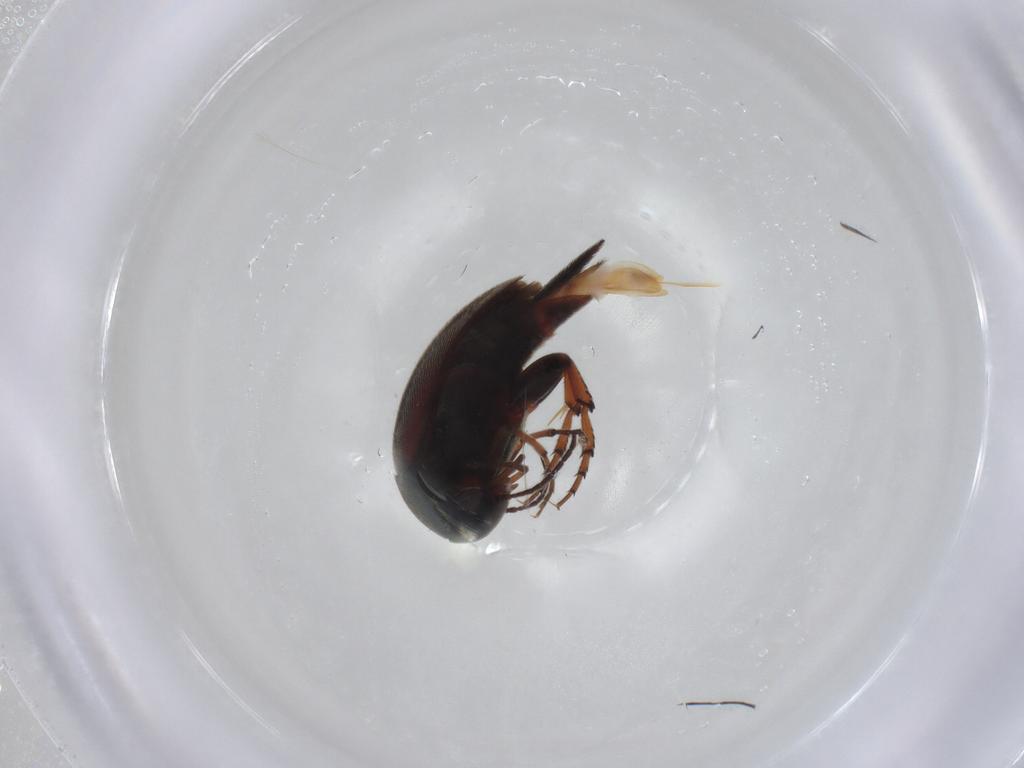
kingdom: Animalia
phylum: Arthropoda
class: Insecta
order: Coleoptera
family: Mordellidae
